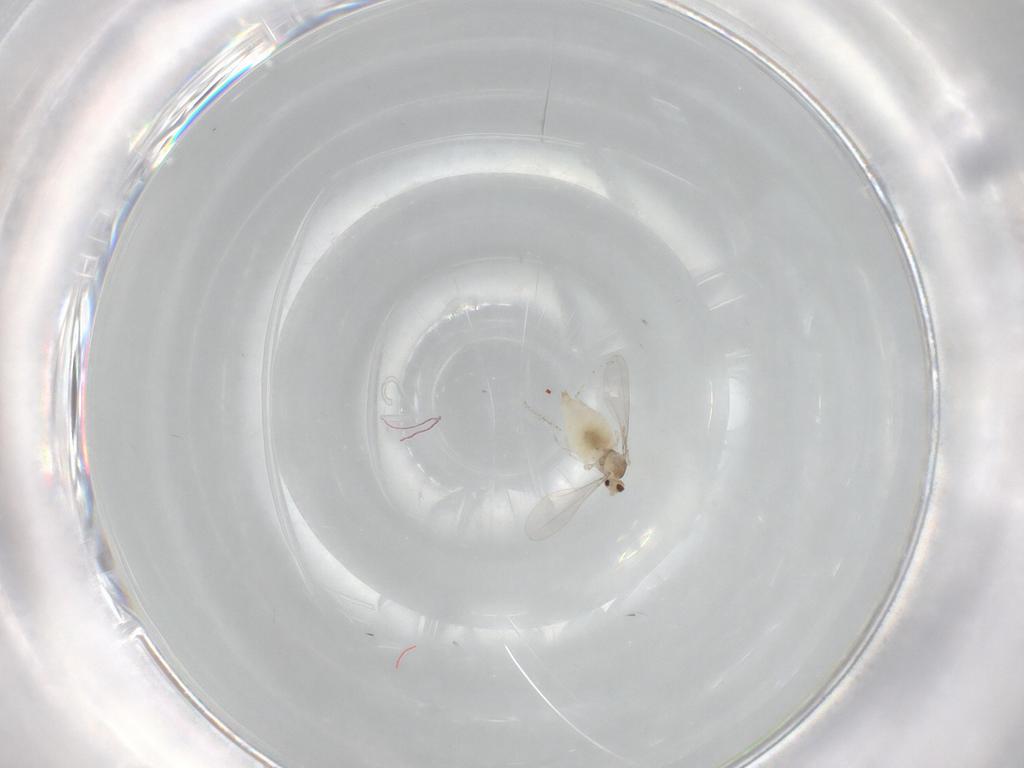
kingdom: Animalia
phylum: Arthropoda
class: Insecta
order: Diptera
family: Cecidomyiidae
